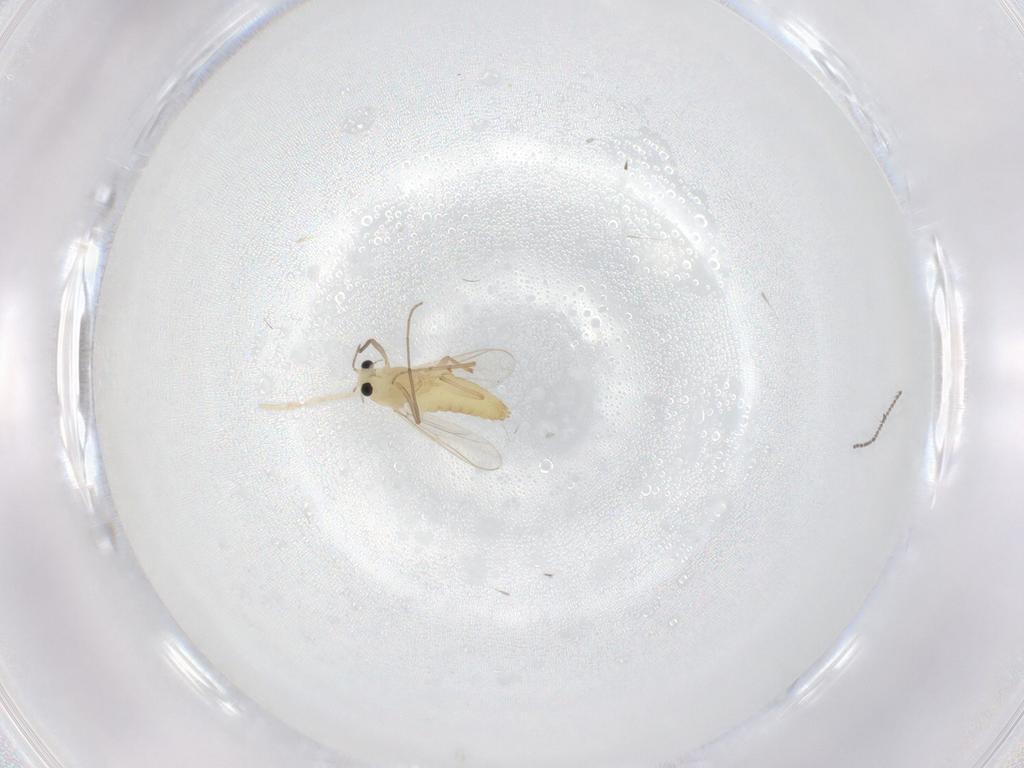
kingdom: Animalia
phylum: Arthropoda
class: Insecta
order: Diptera
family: Chironomidae
